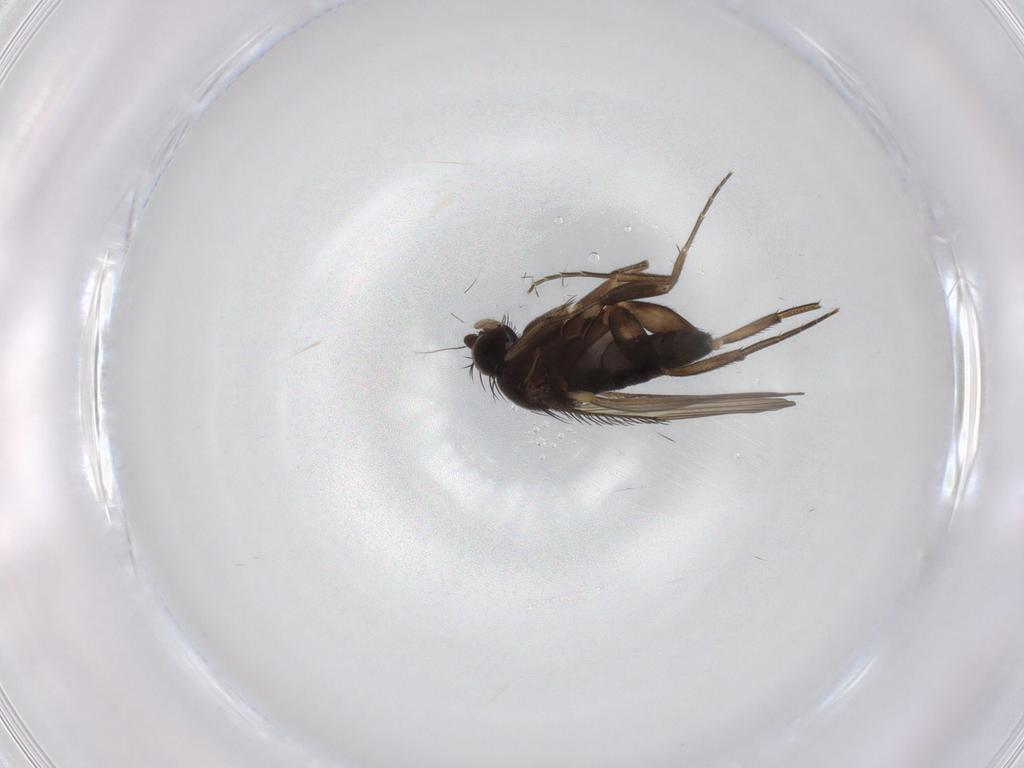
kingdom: Animalia
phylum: Arthropoda
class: Insecta
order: Diptera
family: Phoridae
